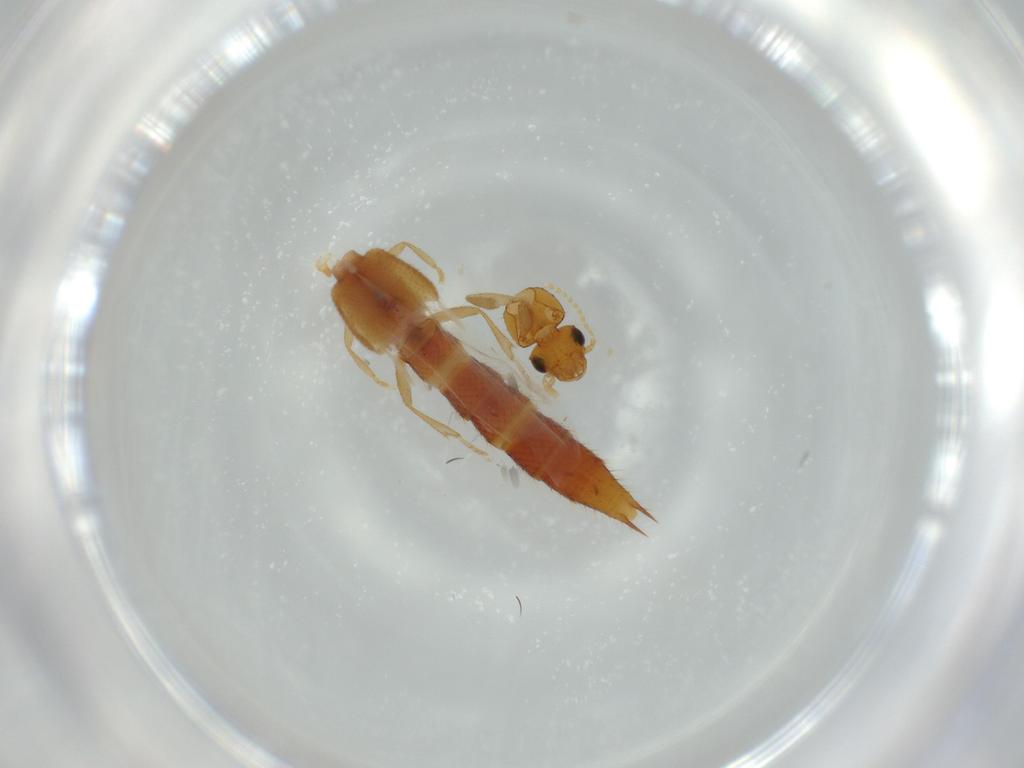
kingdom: Animalia
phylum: Arthropoda
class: Insecta
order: Coleoptera
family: Staphylinidae
